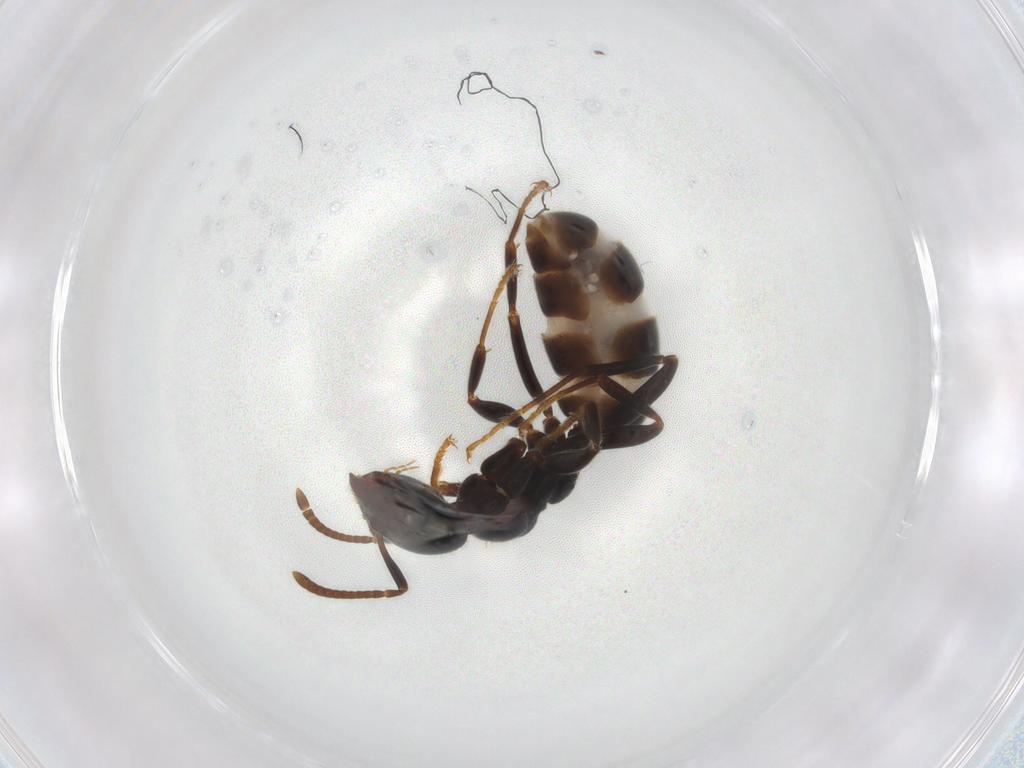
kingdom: Animalia
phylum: Arthropoda
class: Insecta
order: Hymenoptera
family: Formicidae
